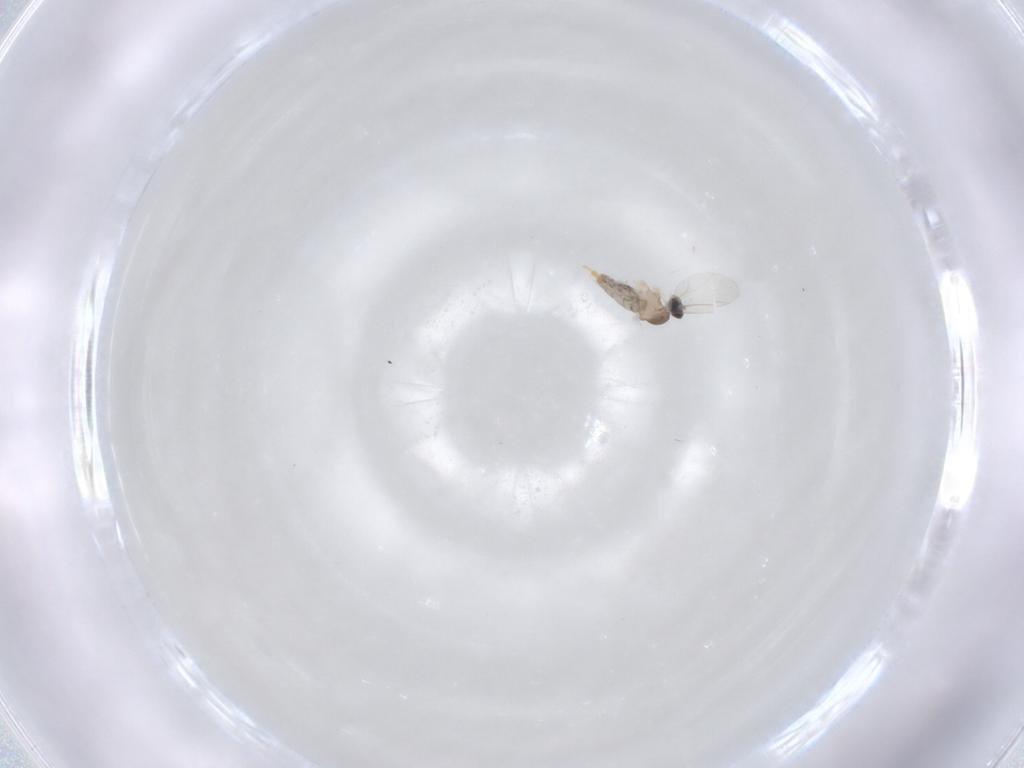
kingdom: Animalia
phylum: Arthropoda
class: Insecta
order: Diptera
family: Cecidomyiidae
